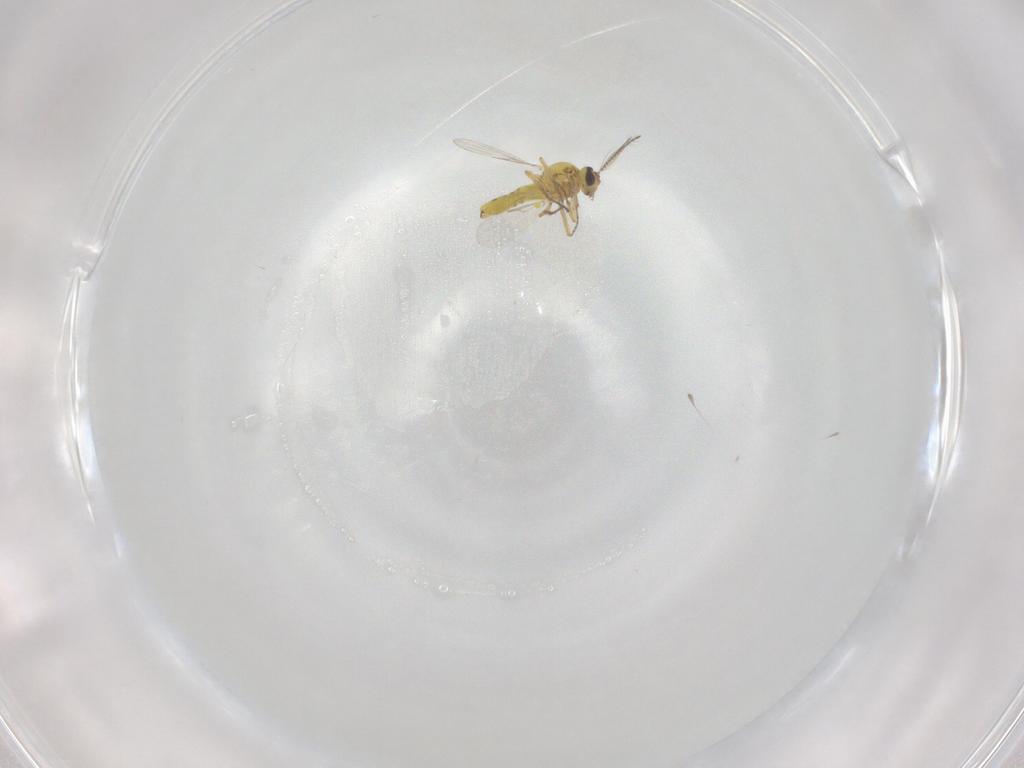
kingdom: Animalia
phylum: Arthropoda
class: Insecta
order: Diptera
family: Ceratopogonidae
